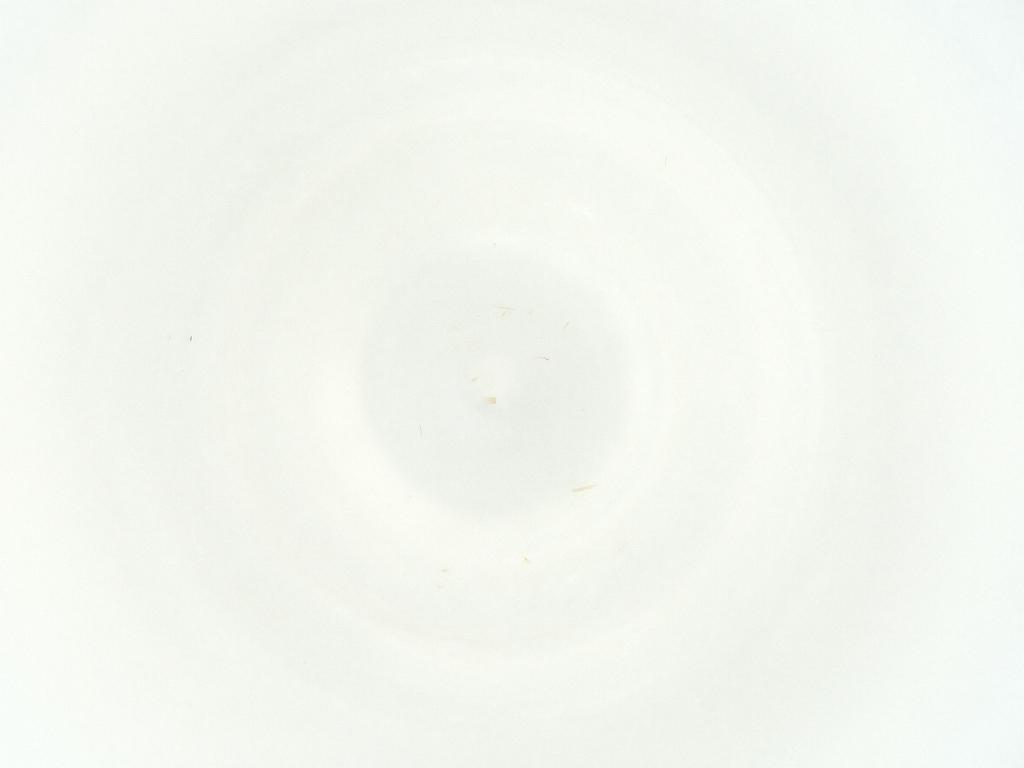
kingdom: Animalia
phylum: Arthropoda
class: Insecta
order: Diptera
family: Sciaridae
